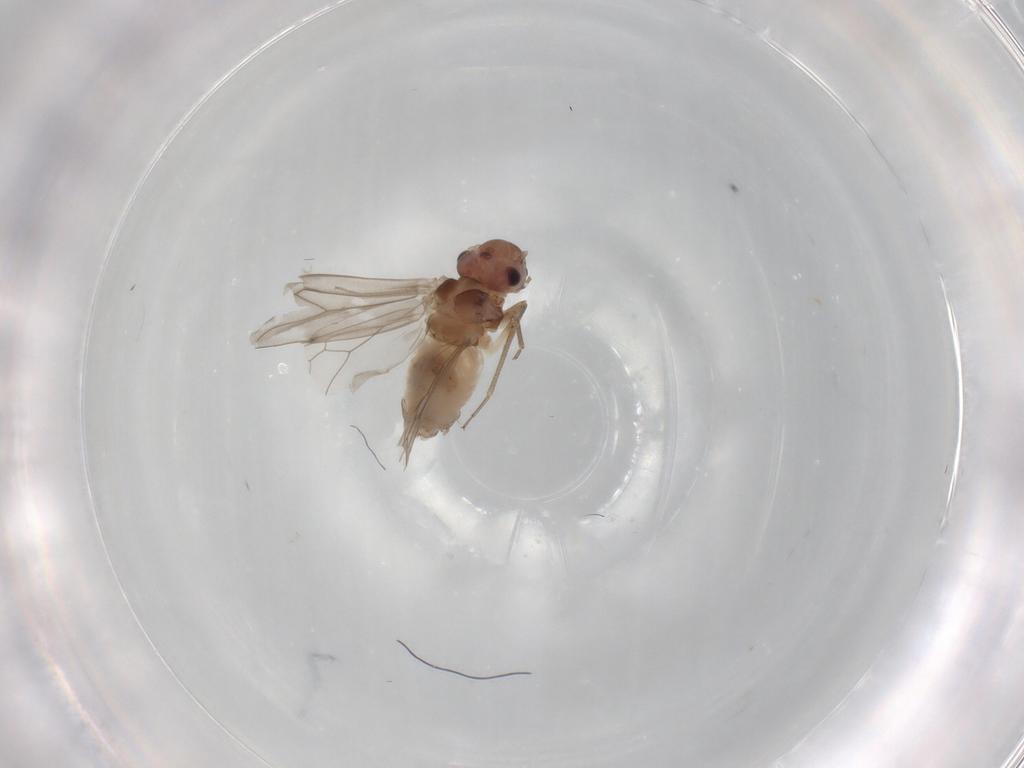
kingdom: Animalia
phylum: Arthropoda
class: Insecta
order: Psocodea
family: Peripsocidae
